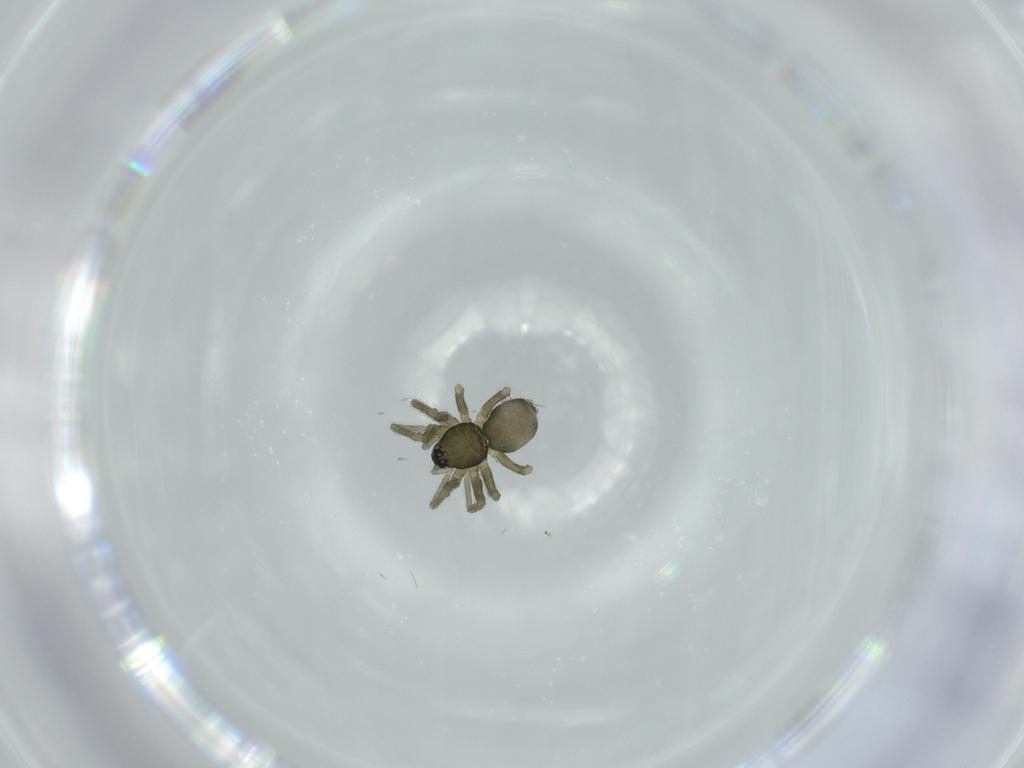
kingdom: Animalia
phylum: Arthropoda
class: Arachnida
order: Araneae
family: Linyphiidae
